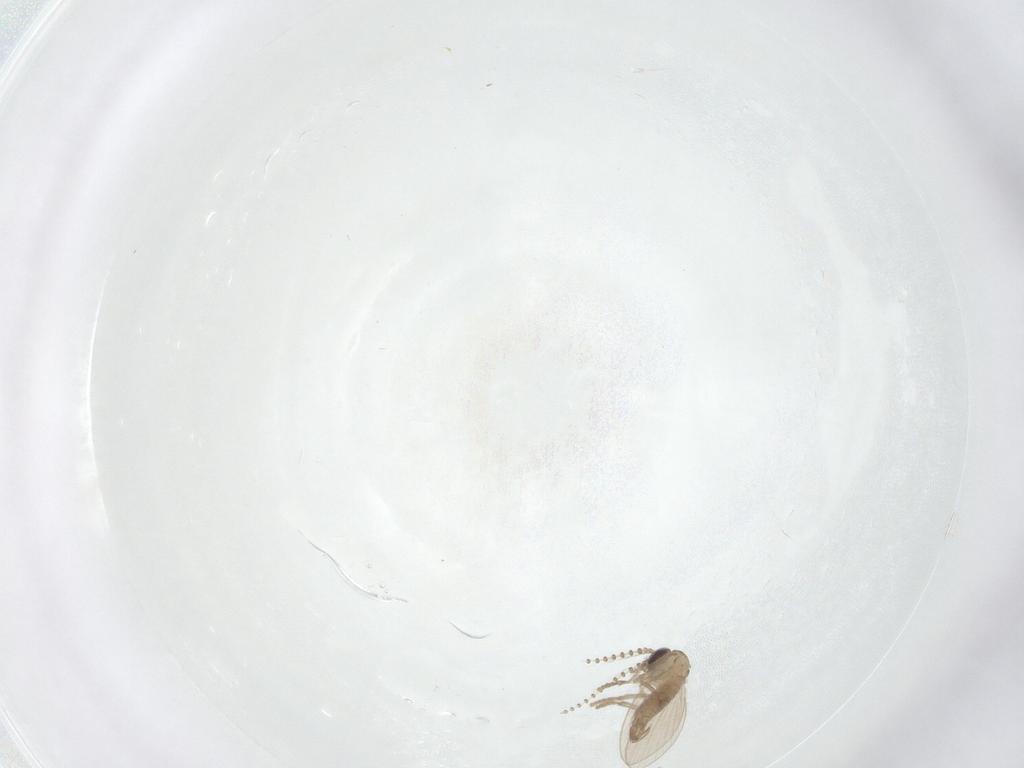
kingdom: Animalia
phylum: Arthropoda
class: Insecta
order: Diptera
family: Chironomidae
